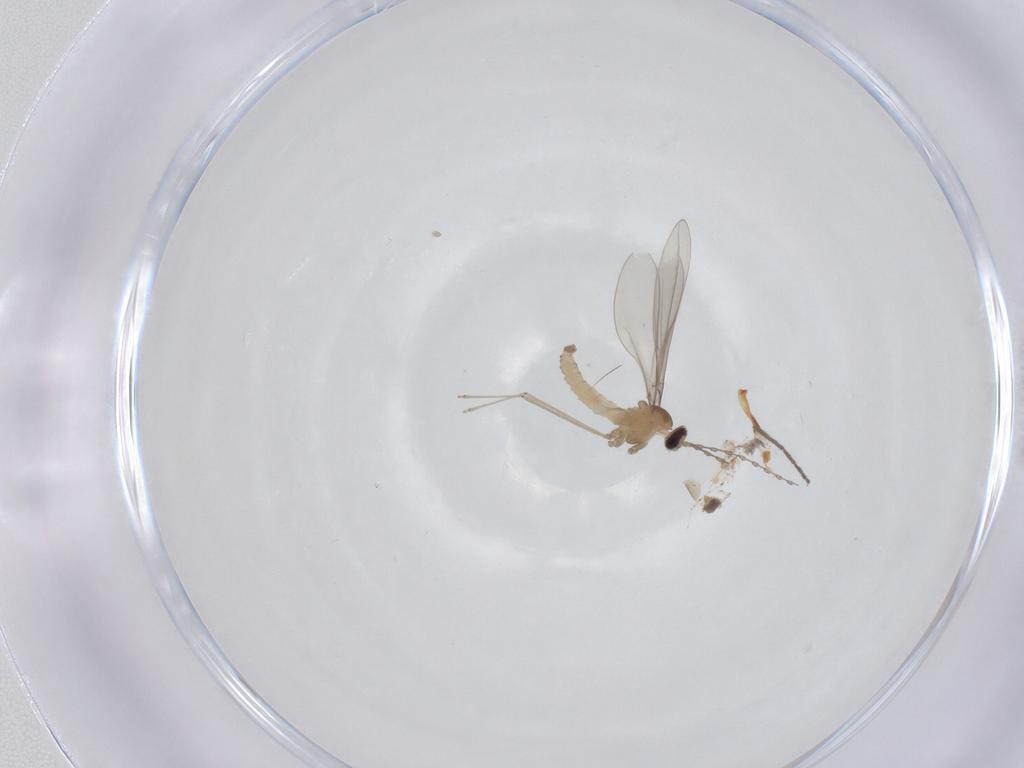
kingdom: Animalia
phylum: Arthropoda
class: Insecta
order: Diptera
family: Cecidomyiidae
